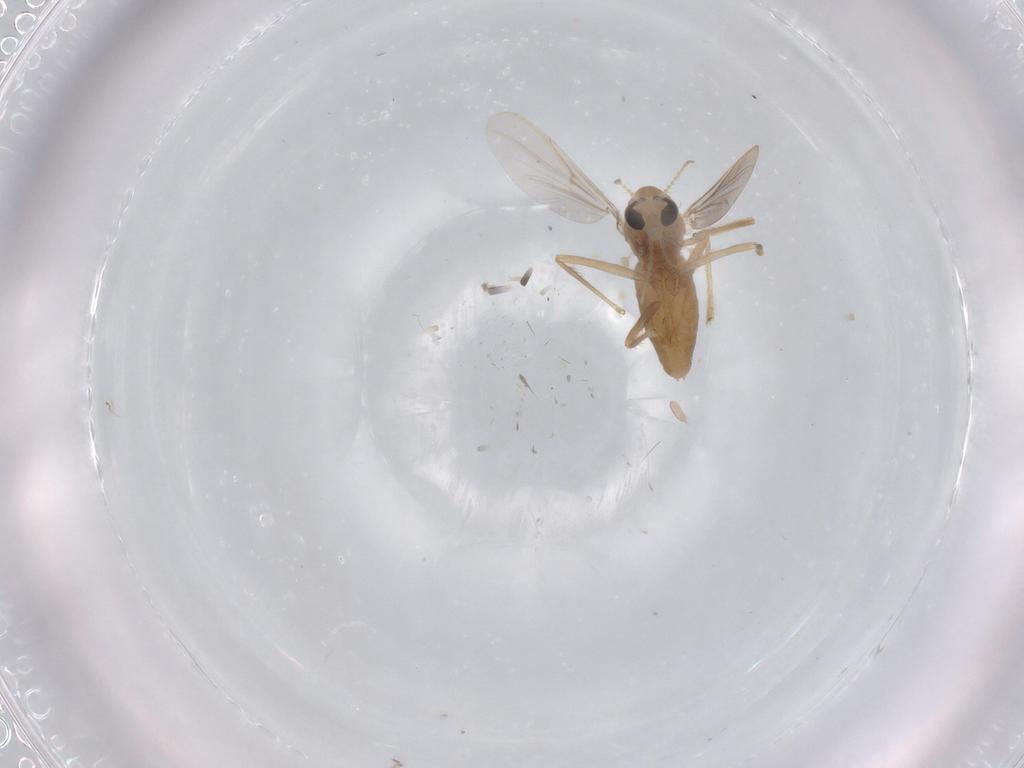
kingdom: Animalia
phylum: Arthropoda
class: Insecta
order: Diptera
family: Chironomidae
